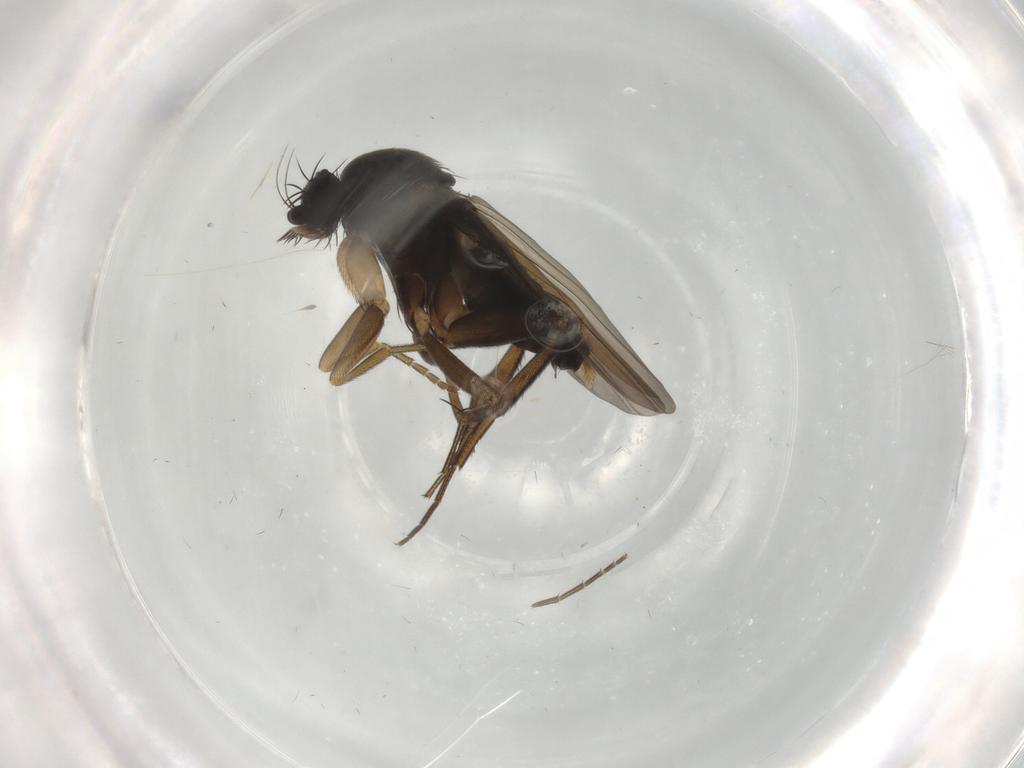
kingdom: Animalia
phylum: Arthropoda
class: Insecta
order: Diptera
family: Phoridae
